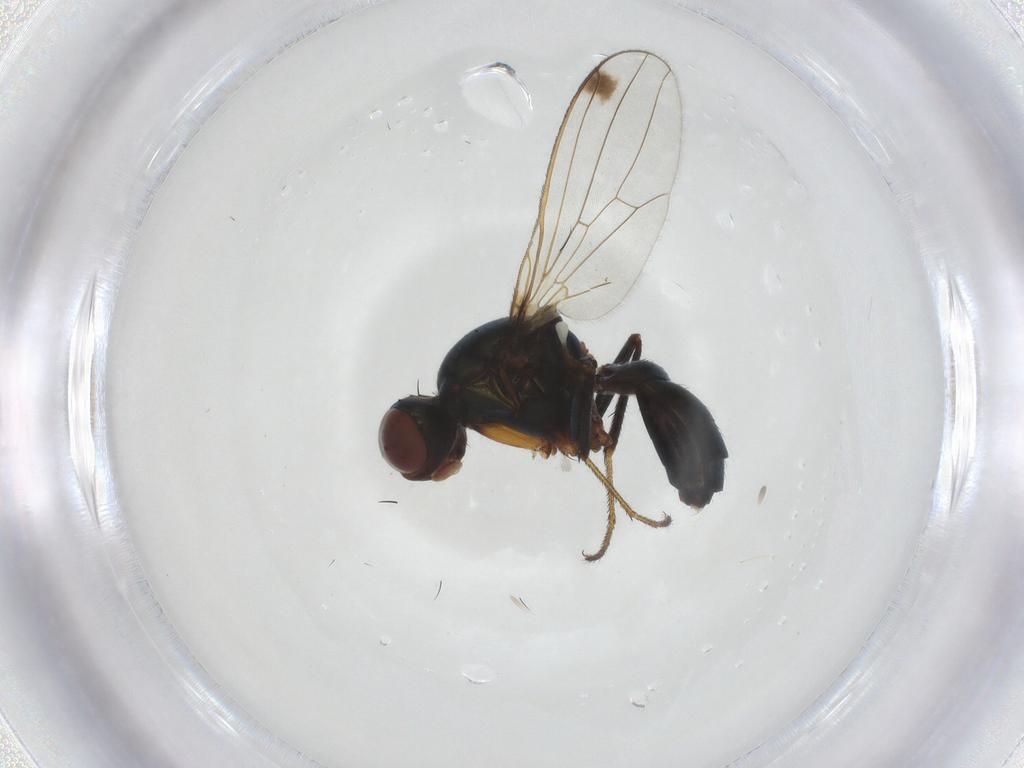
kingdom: Animalia
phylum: Arthropoda
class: Insecta
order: Diptera
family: Sepsidae
